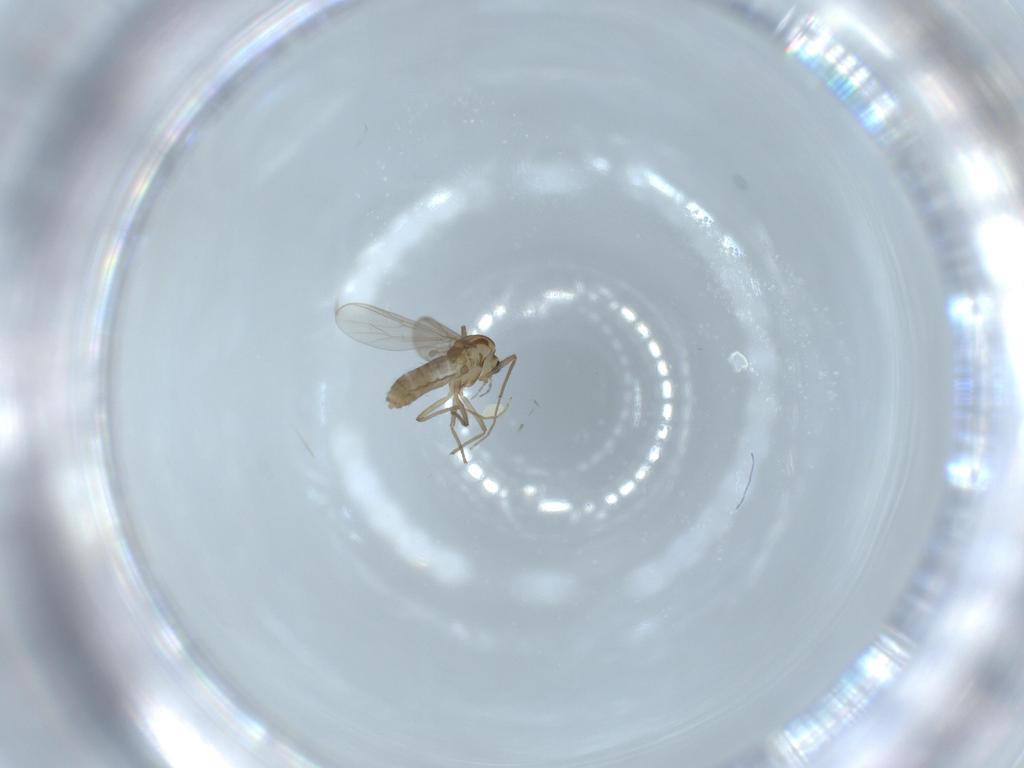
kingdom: Animalia
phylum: Arthropoda
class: Insecta
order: Diptera
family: Chironomidae
